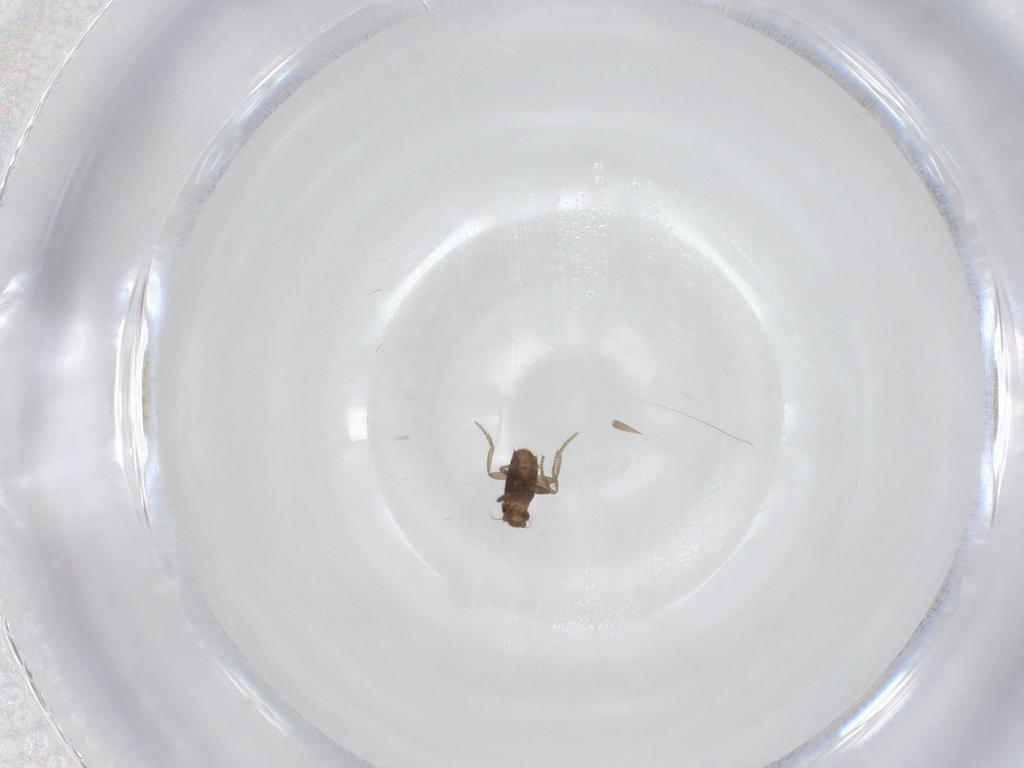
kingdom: Animalia
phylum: Arthropoda
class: Insecta
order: Diptera
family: Phoridae
